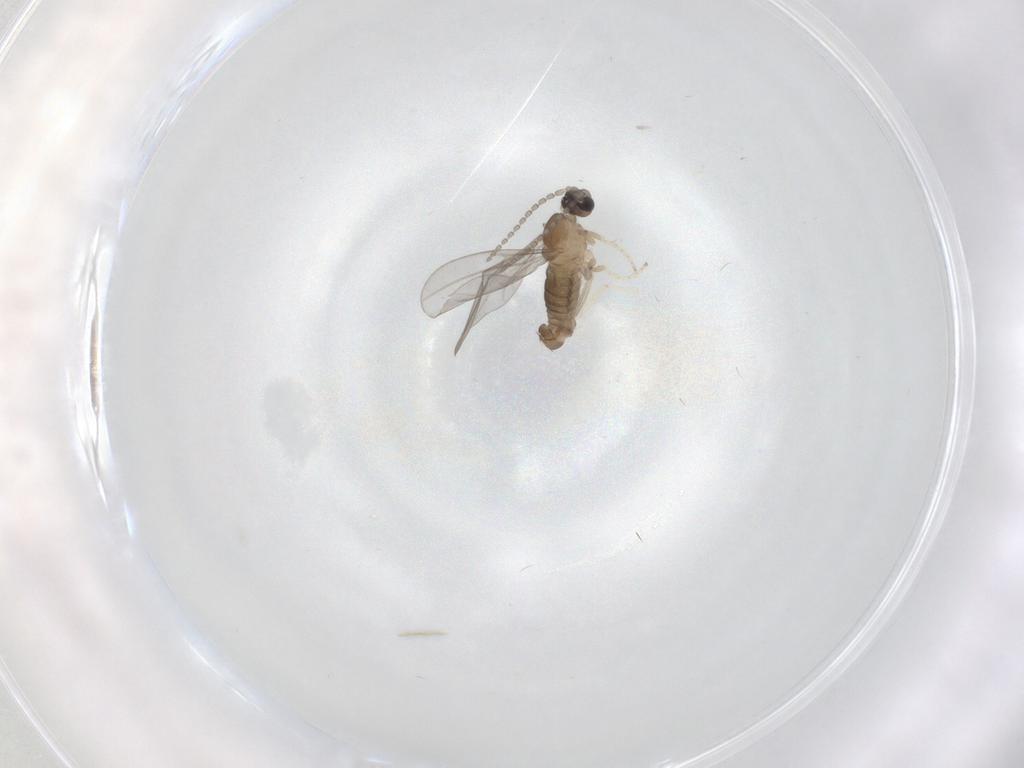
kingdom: Animalia
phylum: Arthropoda
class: Insecta
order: Diptera
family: Cecidomyiidae
